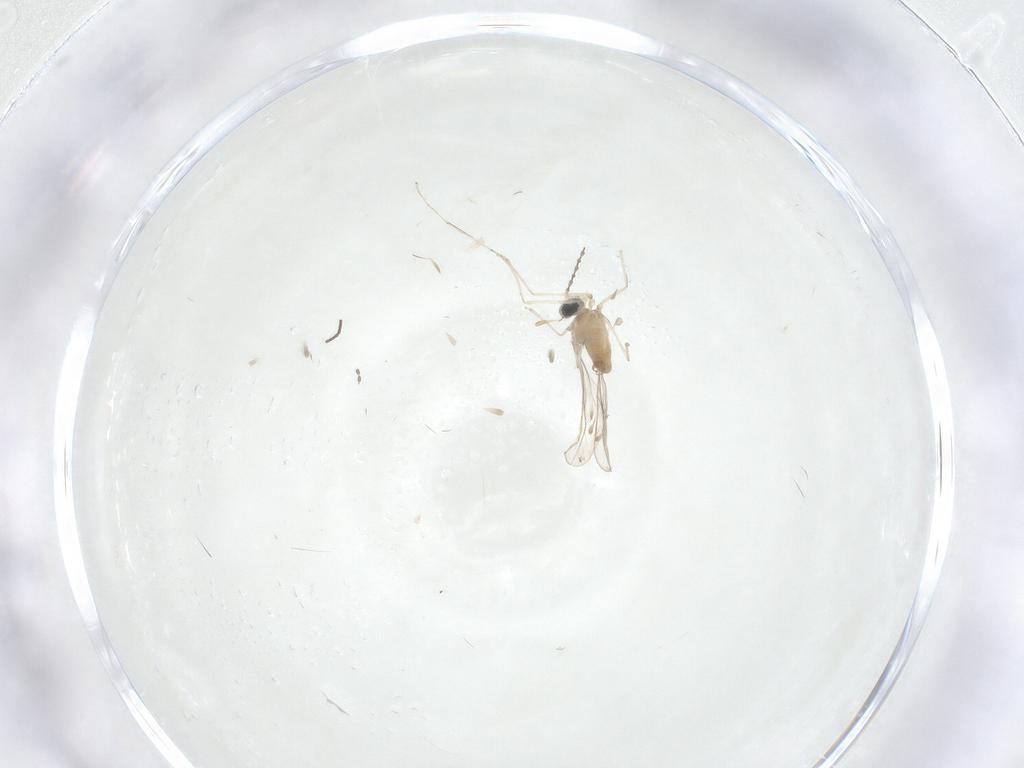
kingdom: Animalia
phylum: Arthropoda
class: Insecta
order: Diptera
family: Cecidomyiidae
